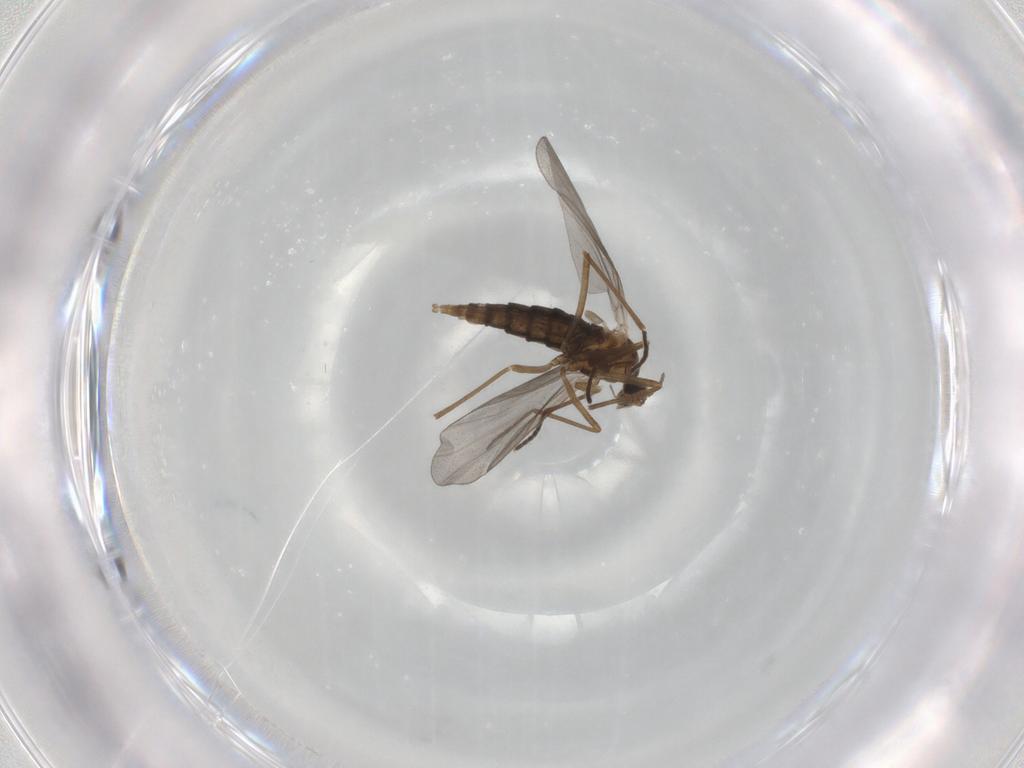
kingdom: Animalia
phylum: Arthropoda
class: Insecta
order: Diptera
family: Cecidomyiidae
